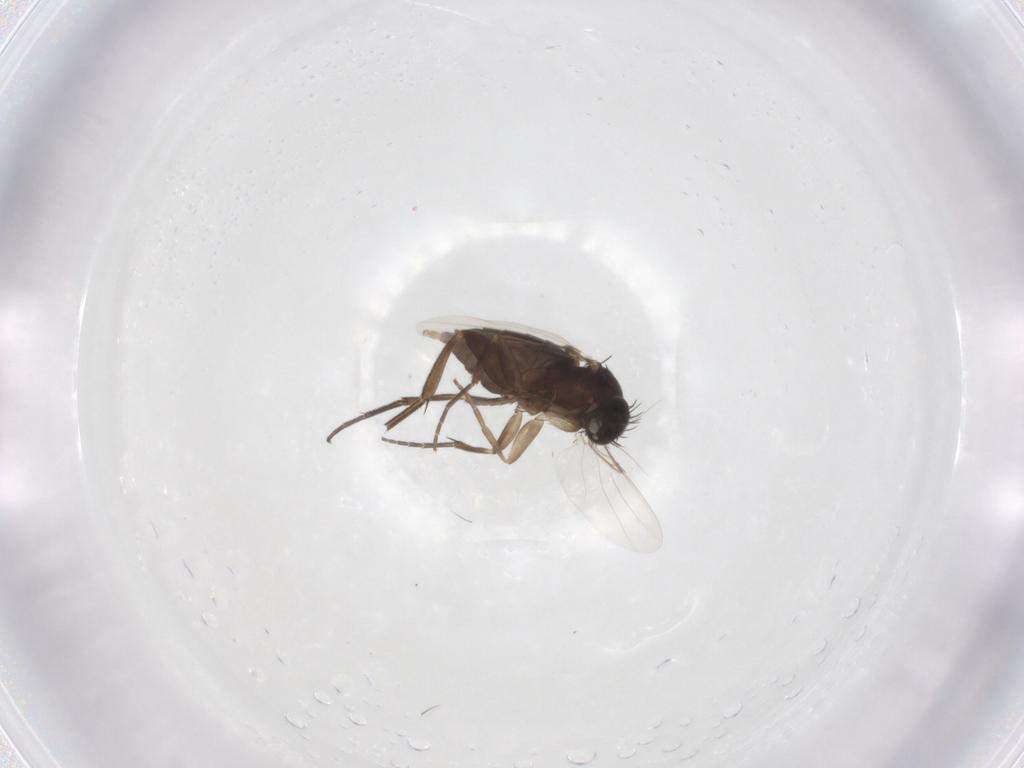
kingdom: Animalia
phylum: Arthropoda
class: Insecta
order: Diptera
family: Phoridae
